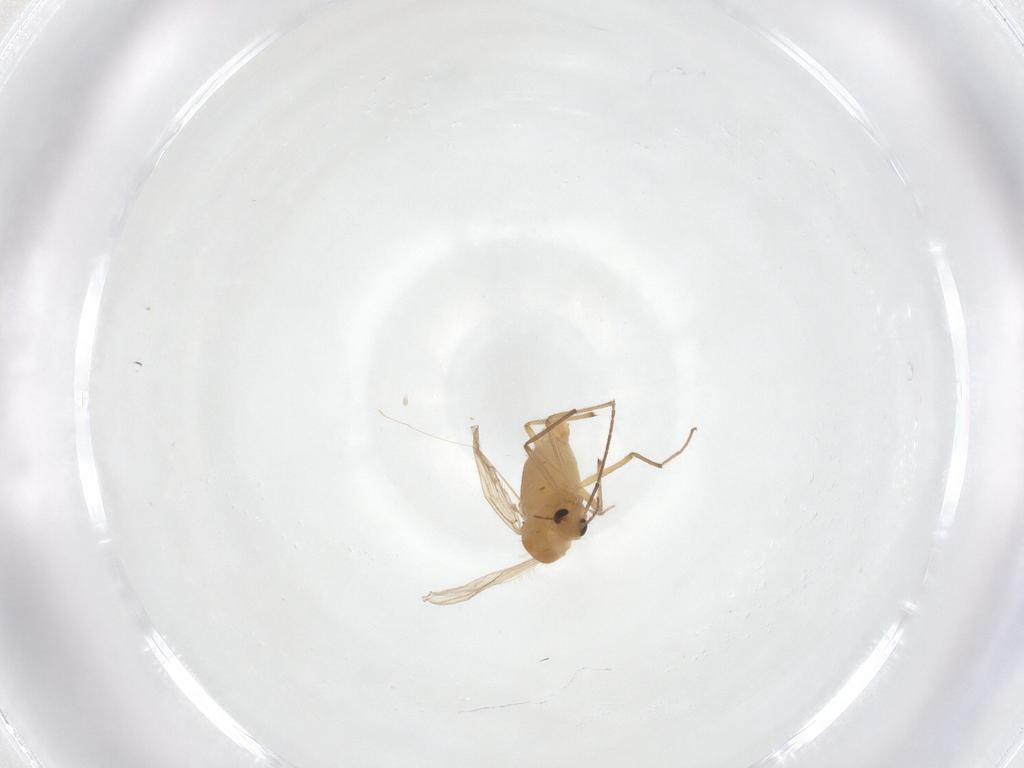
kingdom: Animalia
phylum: Arthropoda
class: Insecta
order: Diptera
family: Chironomidae
